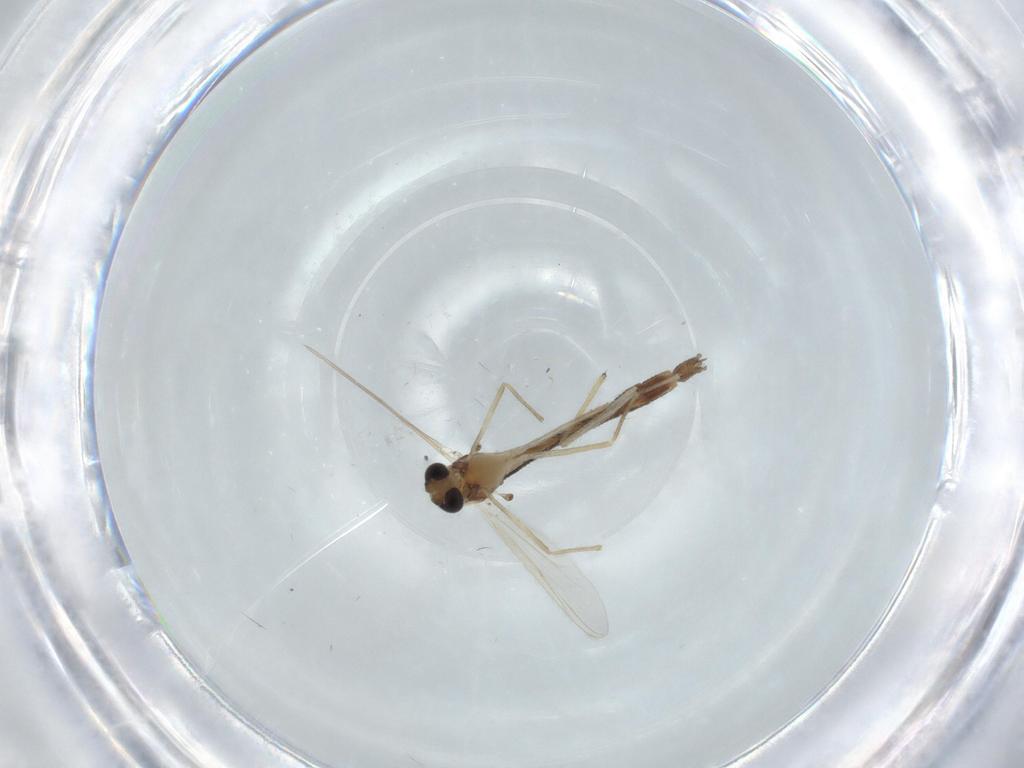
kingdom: Animalia
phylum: Arthropoda
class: Insecta
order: Diptera
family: Chironomidae
